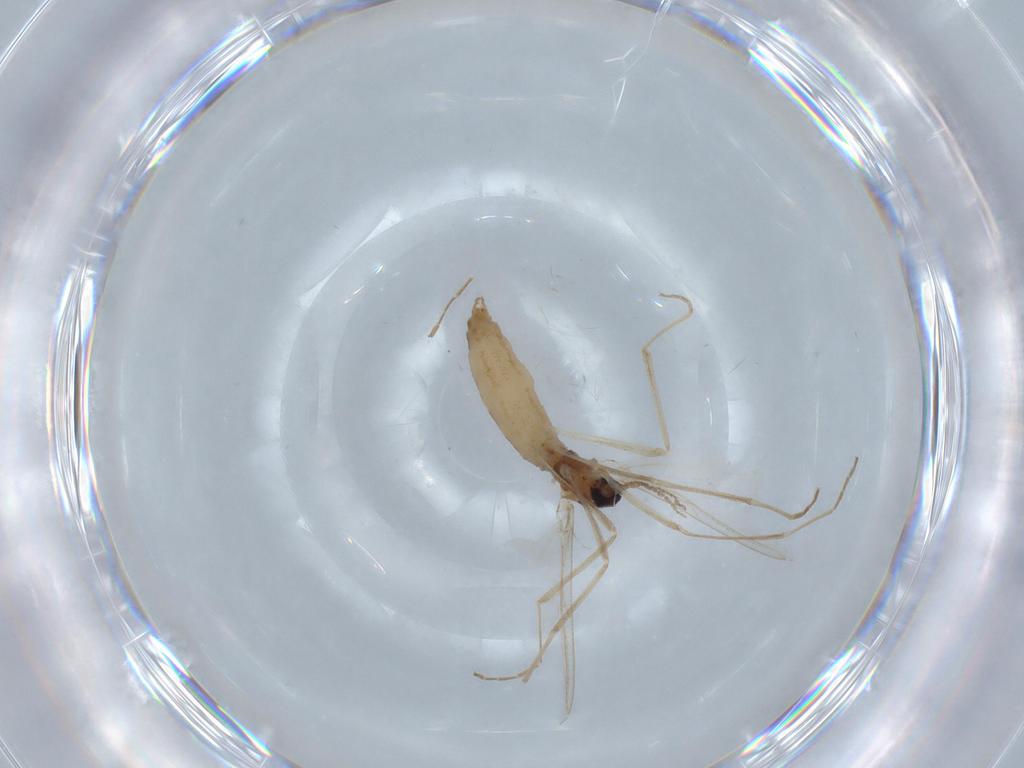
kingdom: Animalia
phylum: Arthropoda
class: Insecta
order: Diptera
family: Cecidomyiidae
